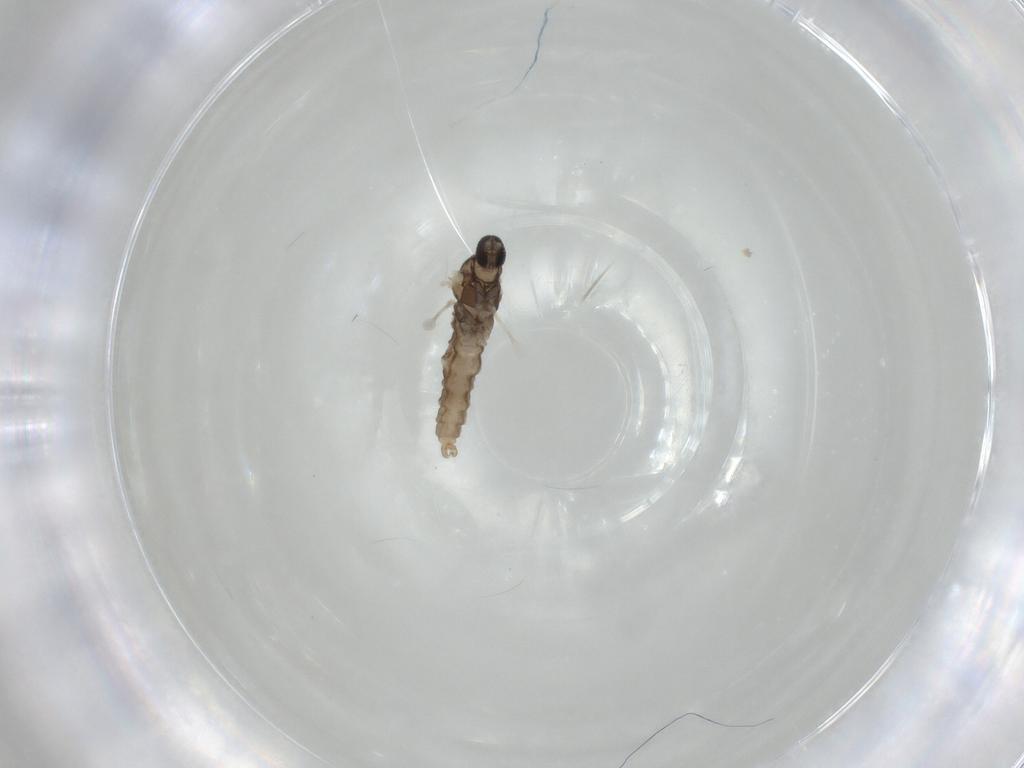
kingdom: Animalia
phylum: Arthropoda
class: Insecta
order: Diptera
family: Cecidomyiidae
